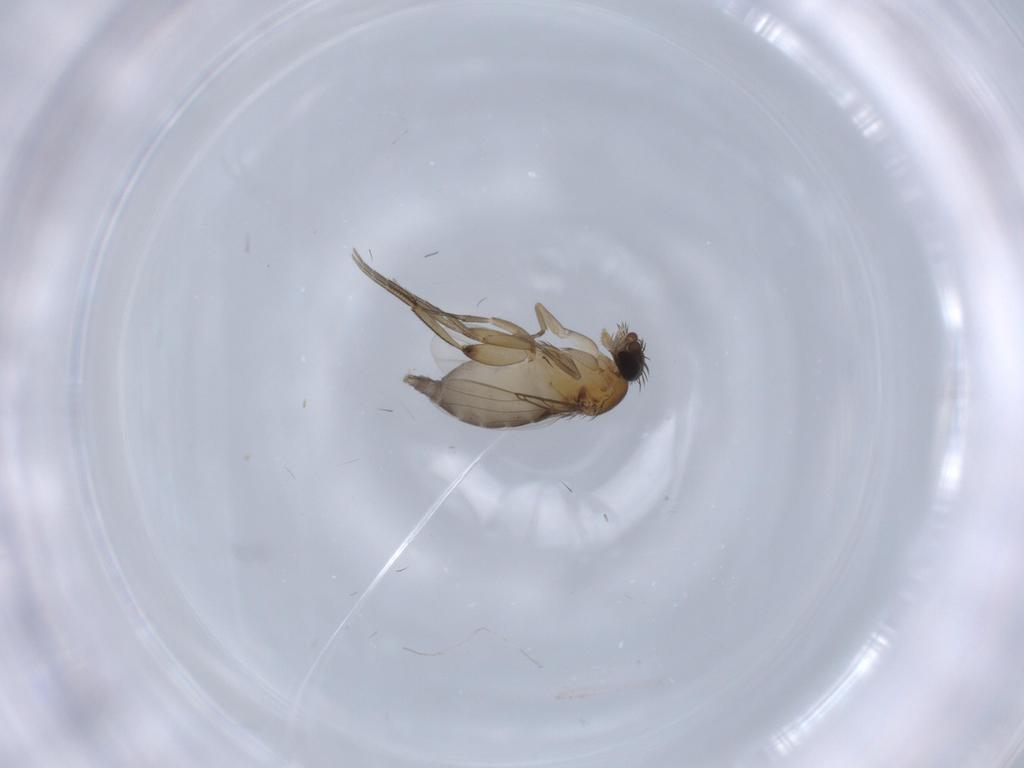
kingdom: Animalia
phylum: Arthropoda
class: Insecta
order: Diptera
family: Phoridae
